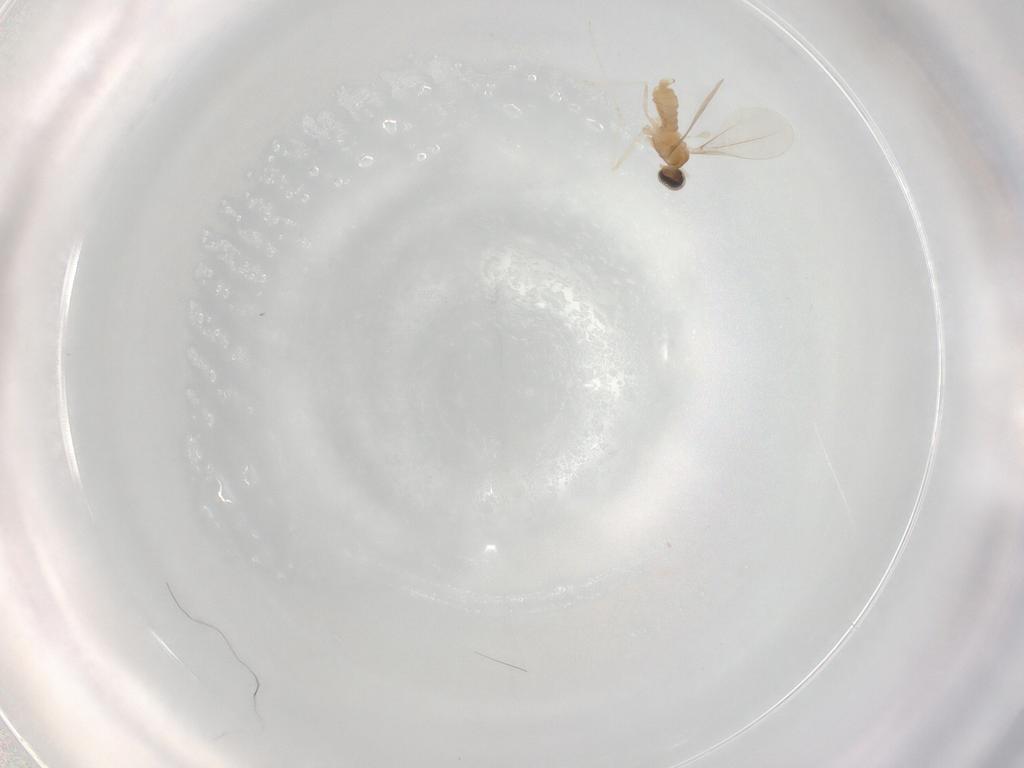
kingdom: Animalia
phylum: Arthropoda
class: Insecta
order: Diptera
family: Cecidomyiidae
